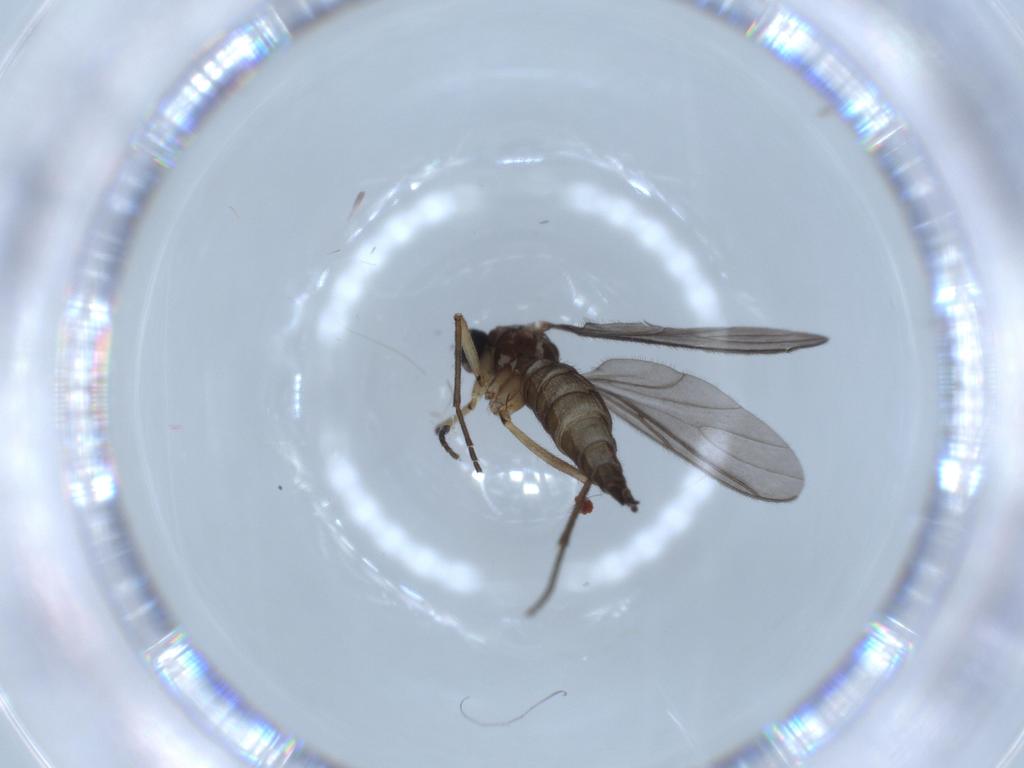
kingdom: Animalia
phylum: Arthropoda
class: Insecta
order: Diptera
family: Sciaridae
